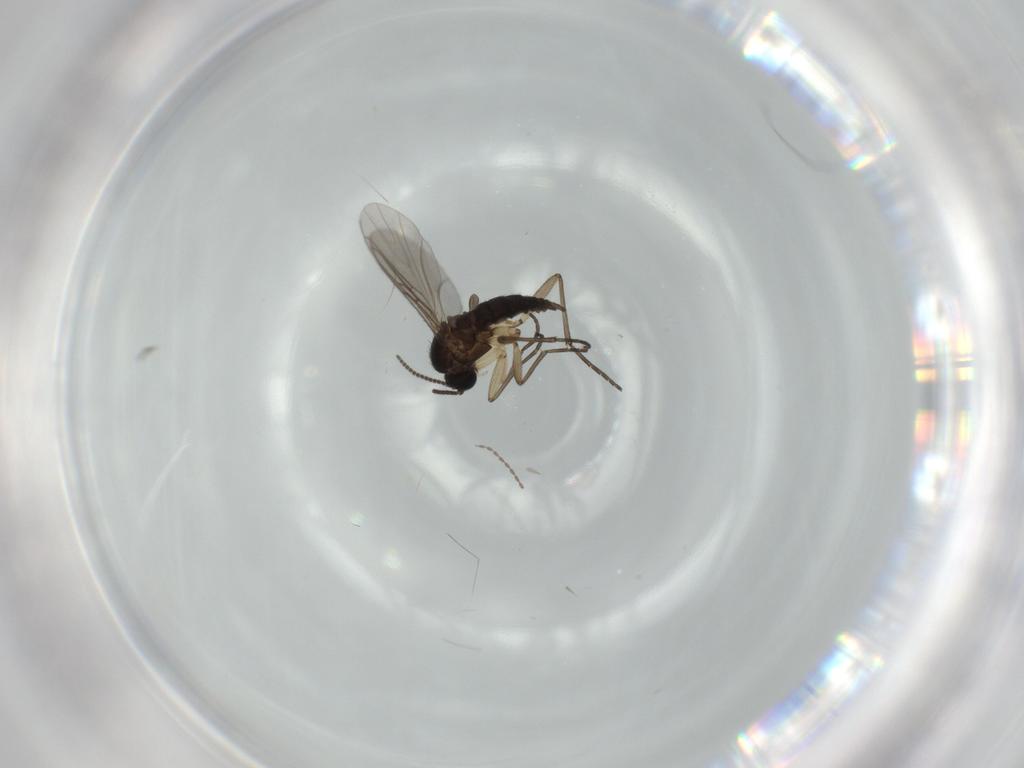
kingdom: Animalia
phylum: Arthropoda
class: Insecta
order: Diptera
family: Sciaridae
